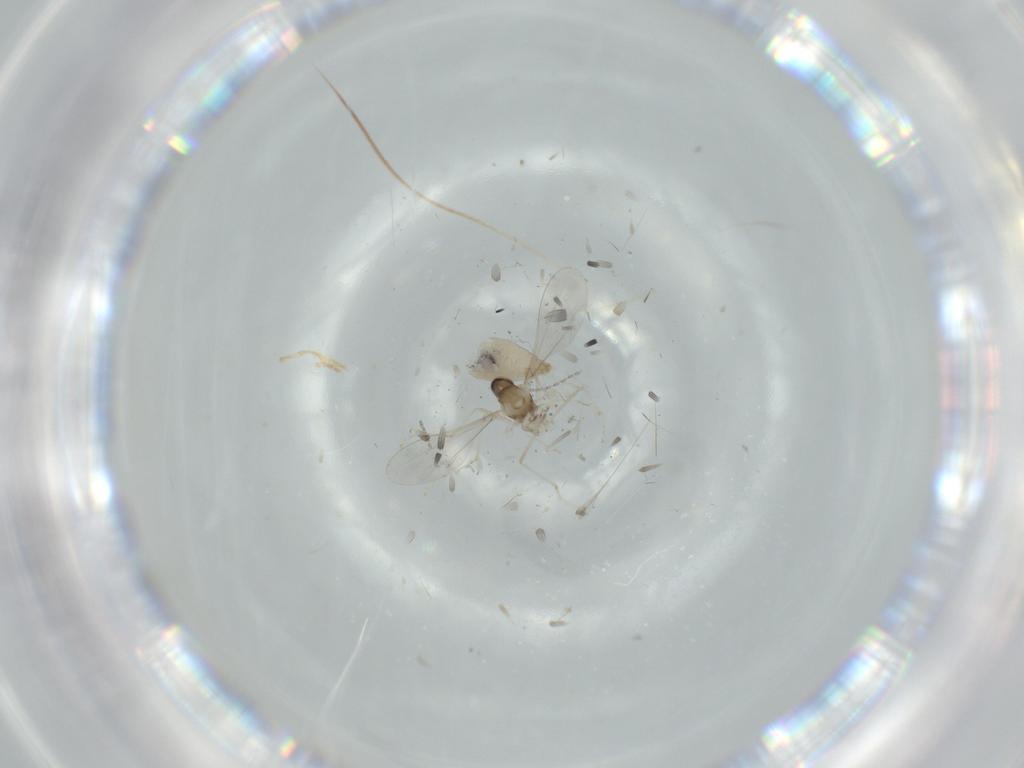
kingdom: Animalia
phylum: Arthropoda
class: Insecta
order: Diptera
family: Cecidomyiidae
